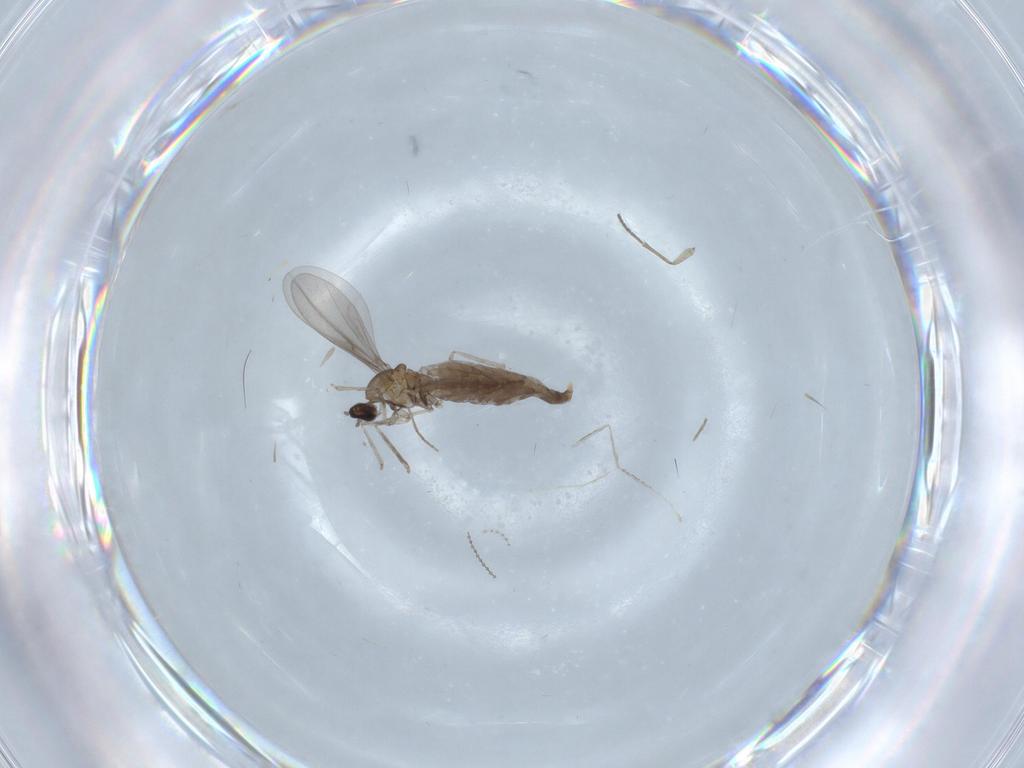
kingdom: Animalia
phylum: Arthropoda
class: Insecta
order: Diptera
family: Cecidomyiidae
